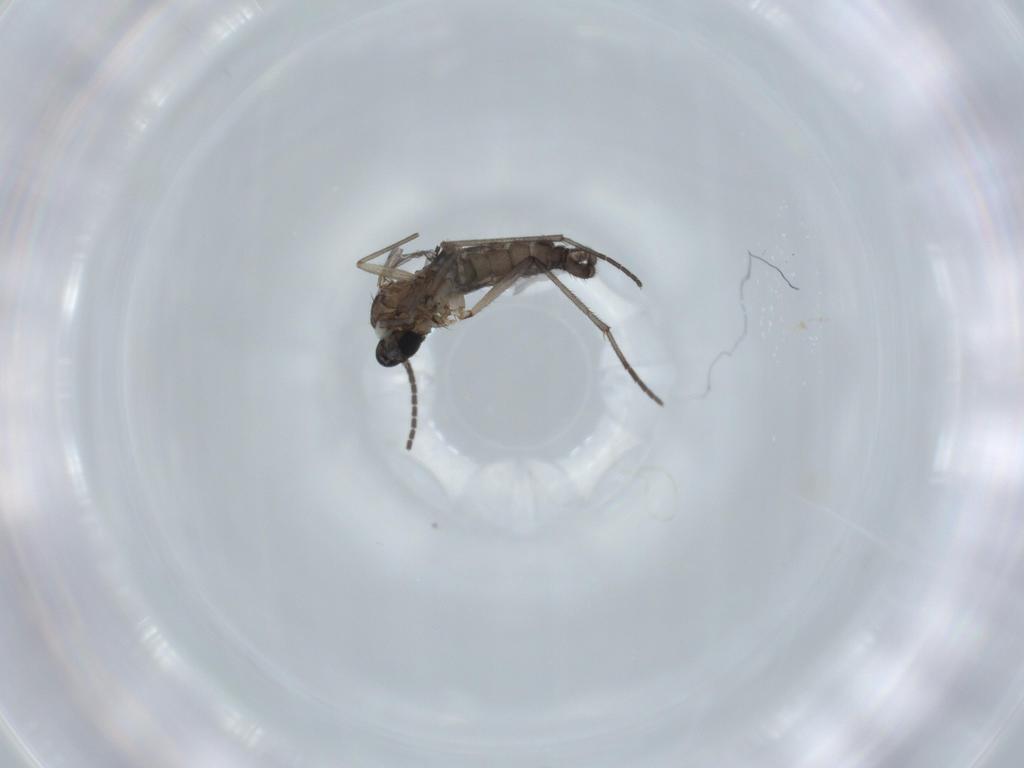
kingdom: Animalia
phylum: Arthropoda
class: Insecta
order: Diptera
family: Sciaridae
